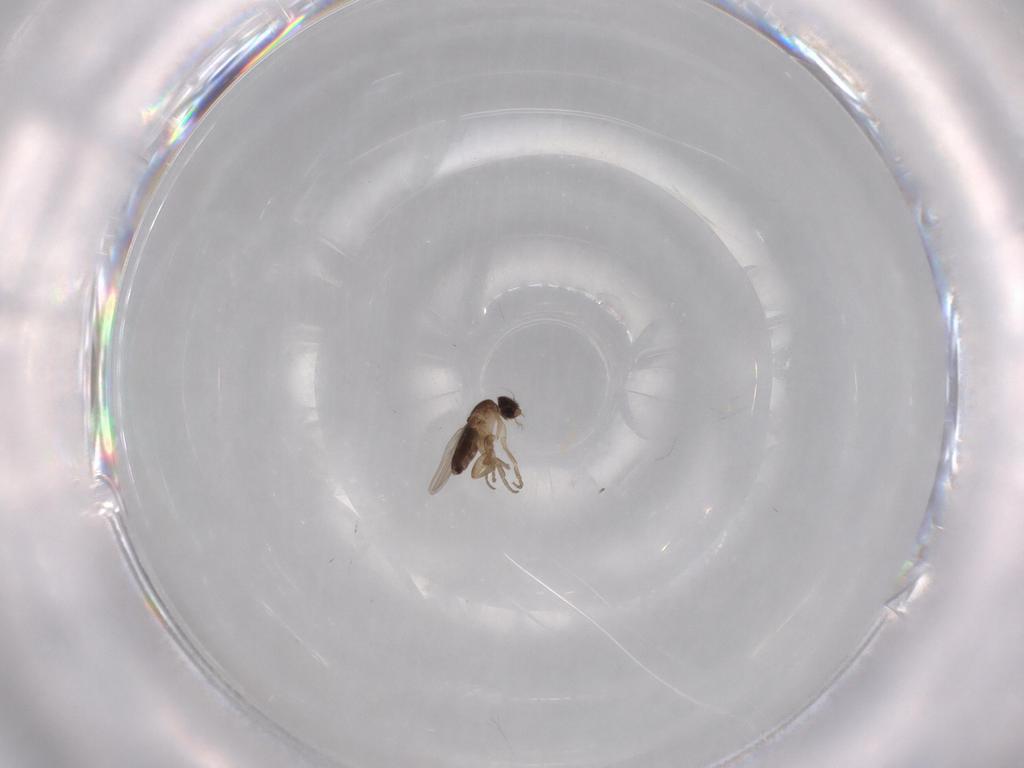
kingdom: Animalia
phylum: Arthropoda
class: Insecta
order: Diptera
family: Phoridae
